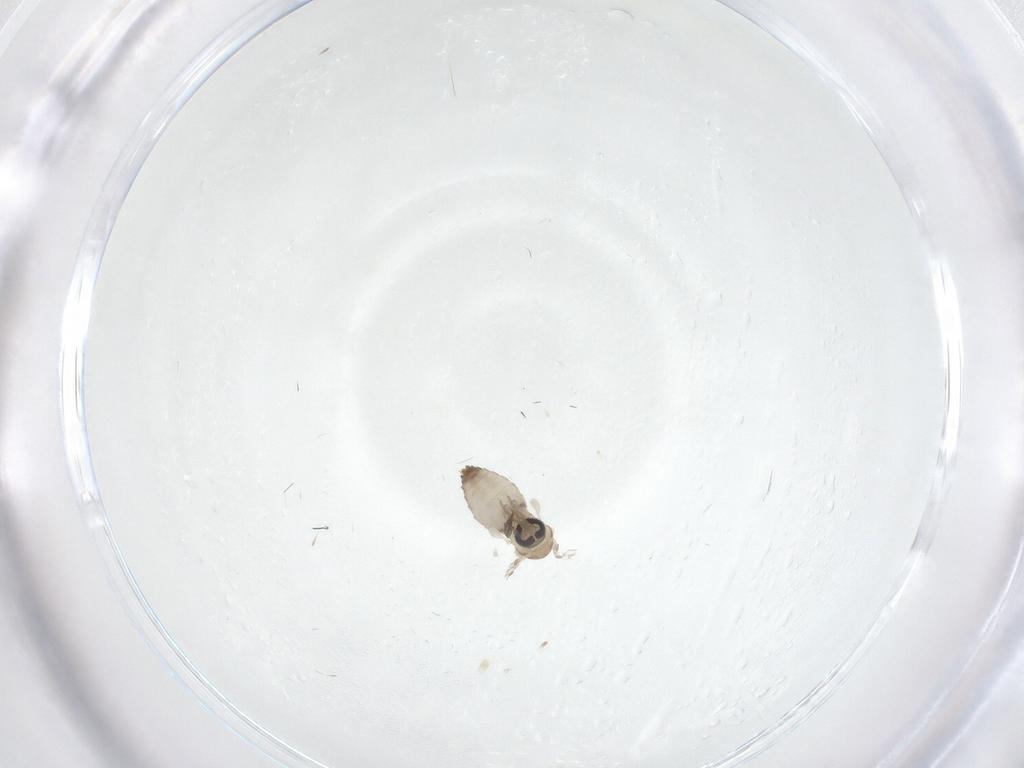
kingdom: Animalia
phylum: Arthropoda
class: Insecta
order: Diptera
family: Psychodidae
